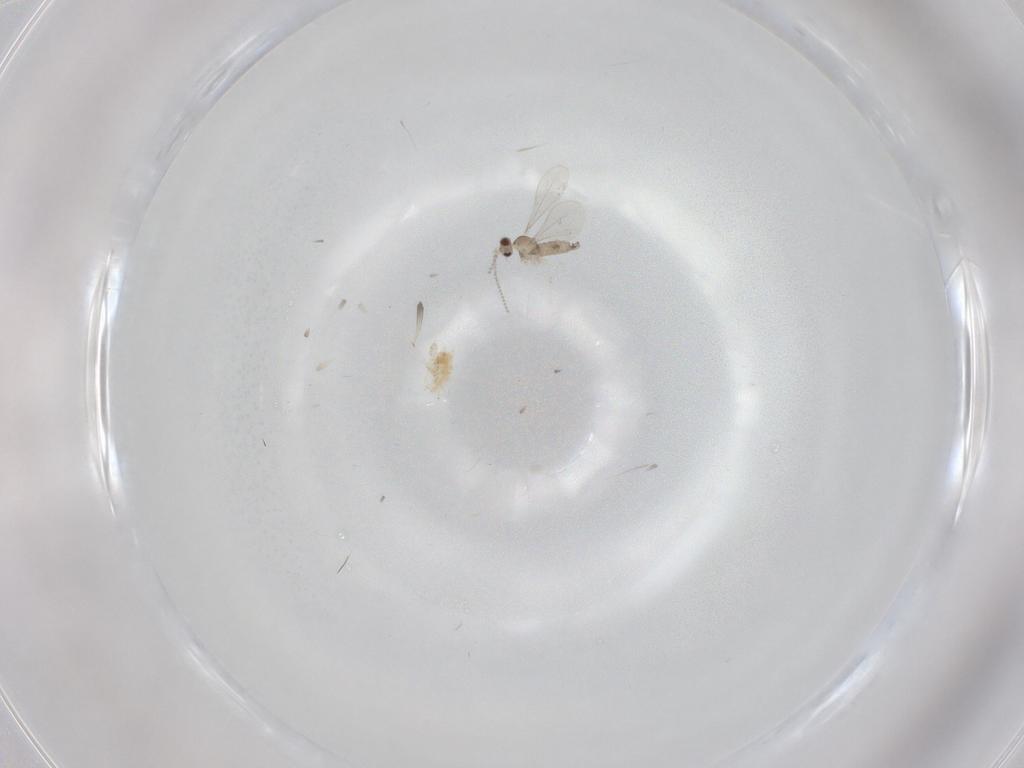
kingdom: Animalia
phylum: Arthropoda
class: Insecta
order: Diptera
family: Cecidomyiidae
